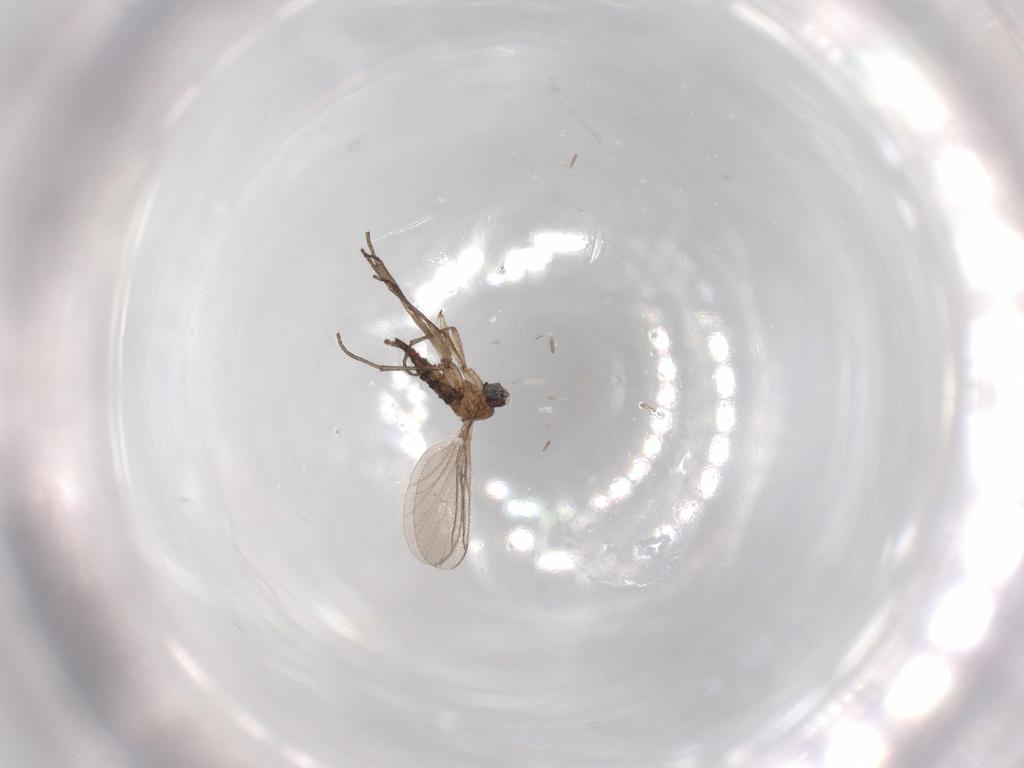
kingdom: Animalia
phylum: Arthropoda
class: Insecta
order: Diptera
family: Sciaridae
